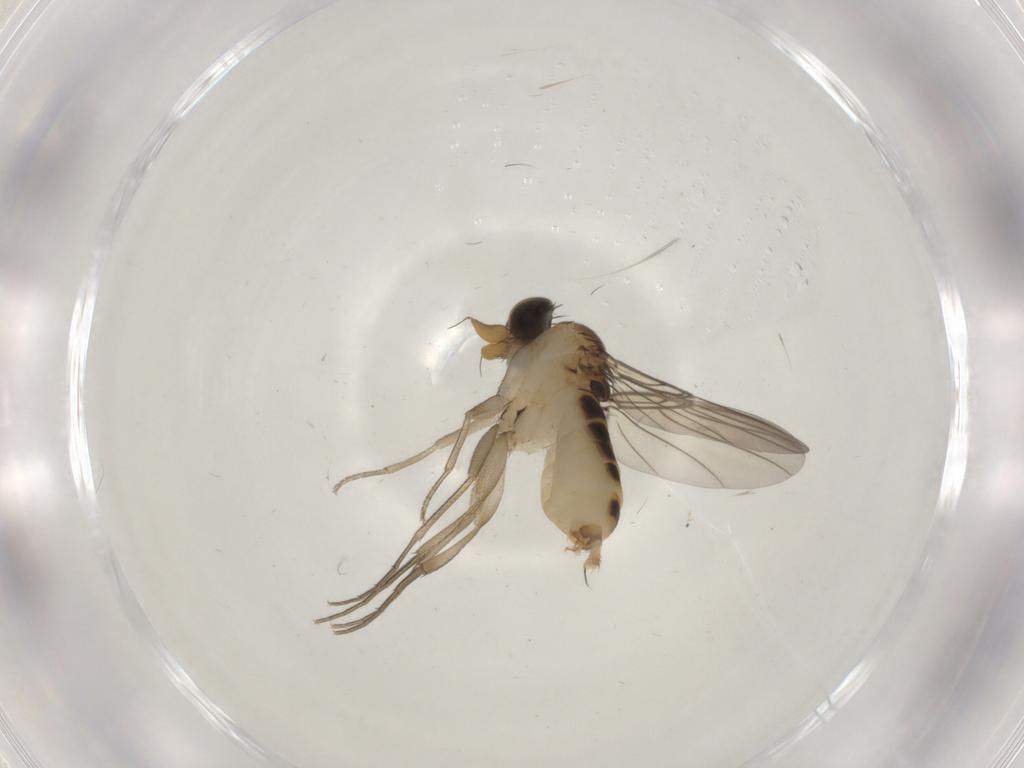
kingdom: Animalia
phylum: Arthropoda
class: Insecta
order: Diptera
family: Phoridae
